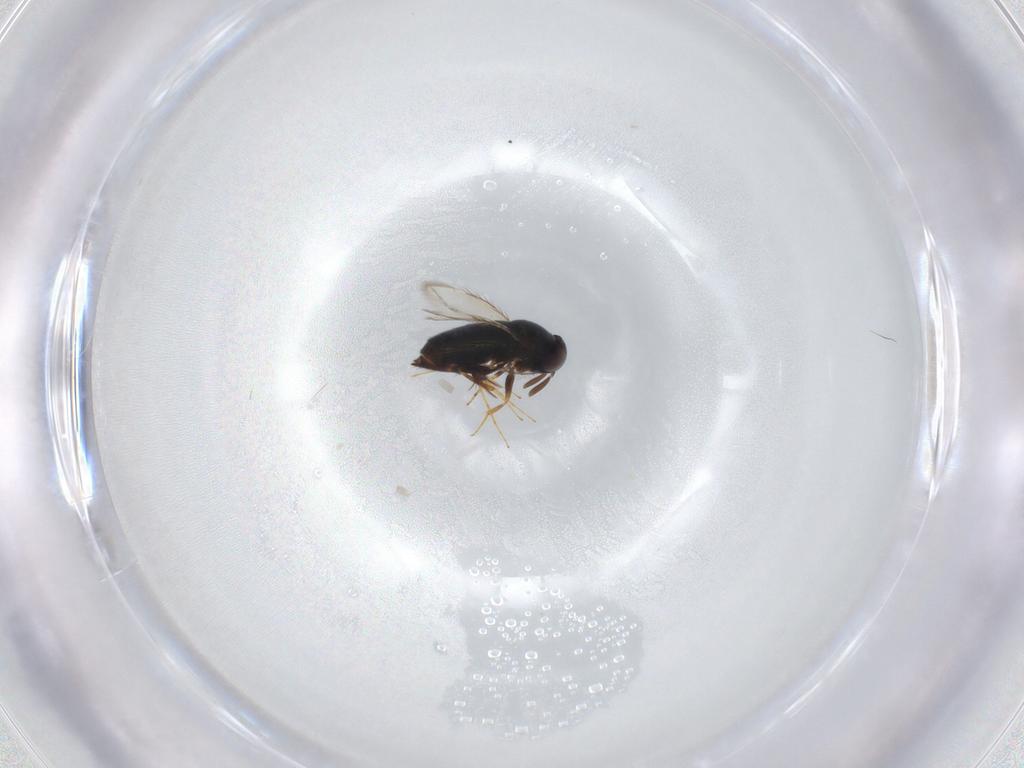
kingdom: Animalia
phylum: Arthropoda
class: Insecta
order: Hymenoptera
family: Signiphoridae
